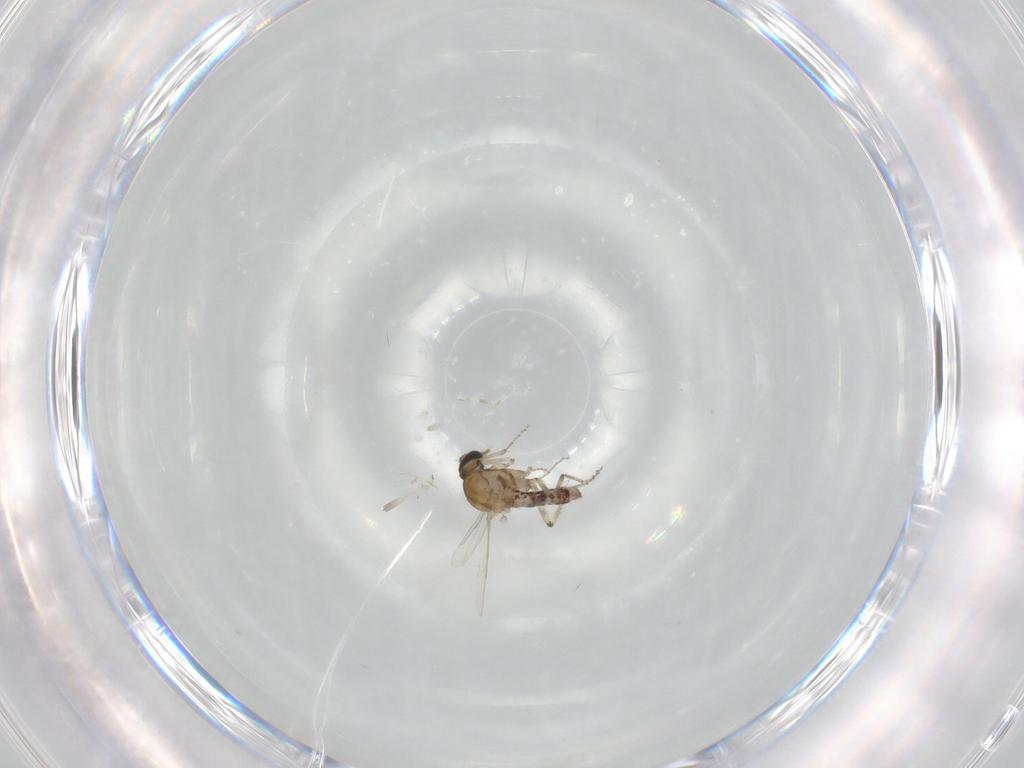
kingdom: Animalia
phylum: Arthropoda
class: Insecta
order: Diptera
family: Ceratopogonidae
